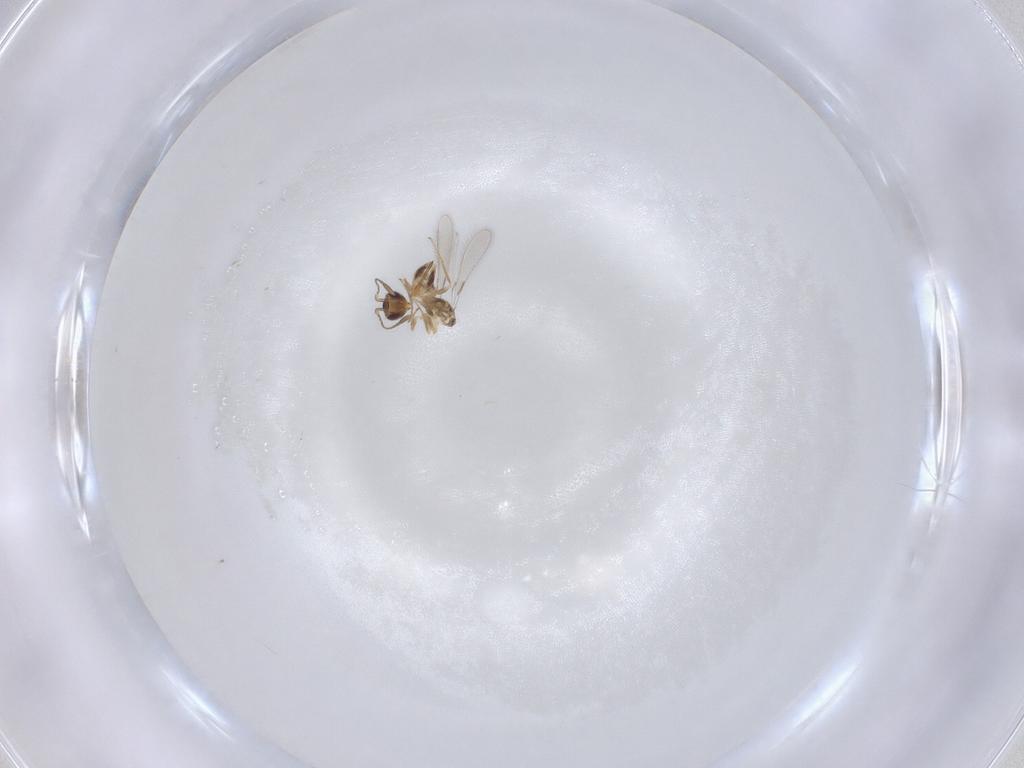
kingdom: Animalia
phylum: Arthropoda
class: Insecta
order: Hymenoptera
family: Mymaridae
